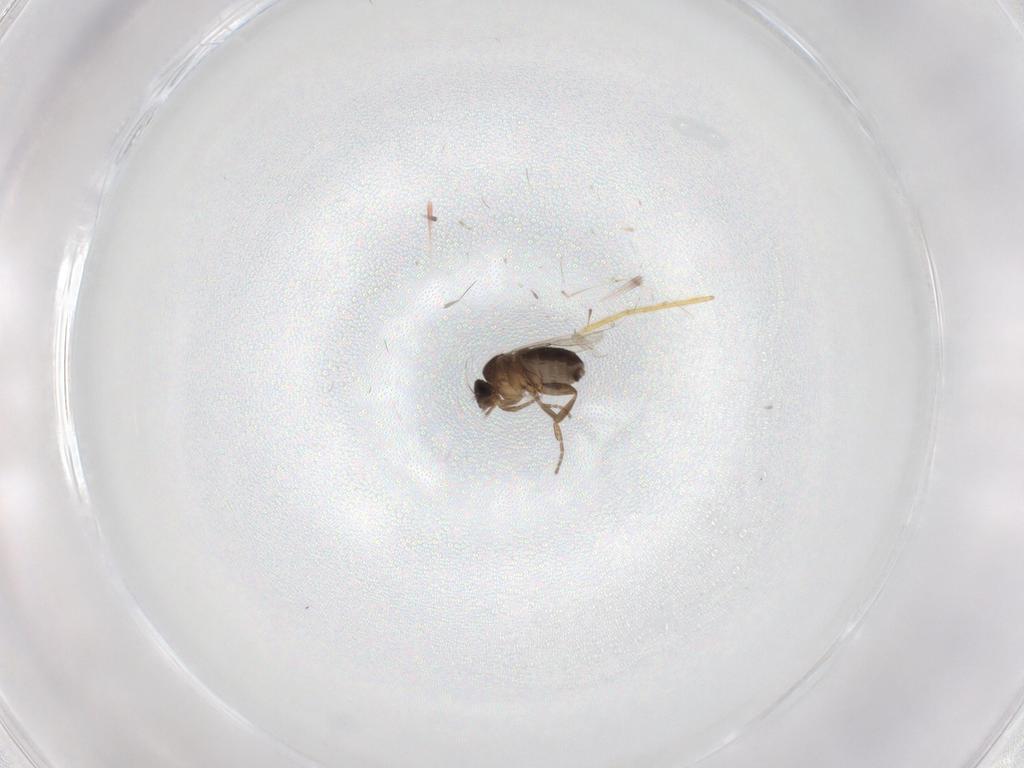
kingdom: Animalia
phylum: Arthropoda
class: Insecta
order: Diptera
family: Phoridae
